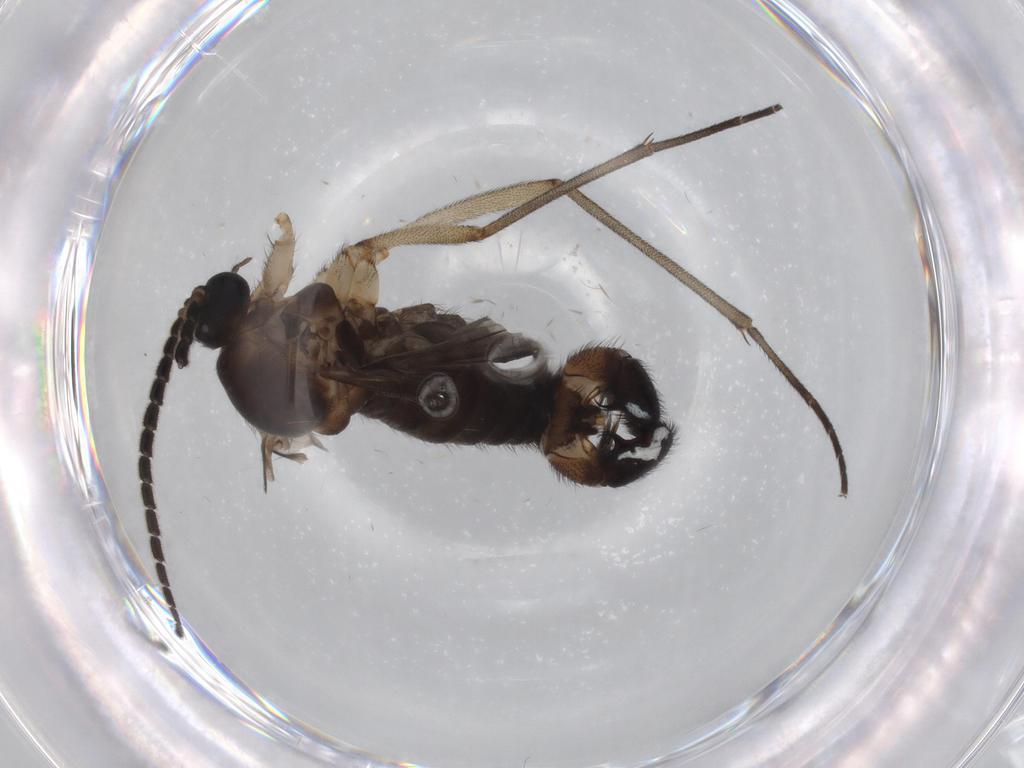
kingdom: Animalia
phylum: Arthropoda
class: Insecta
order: Diptera
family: Sciaridae
